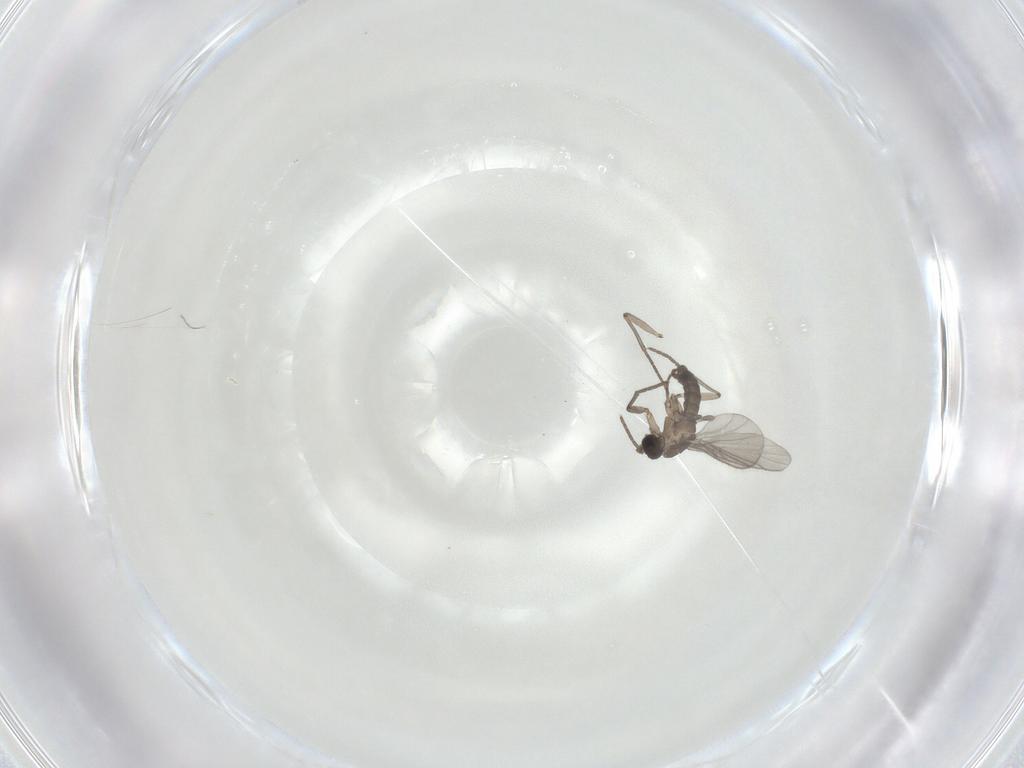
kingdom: Animalia
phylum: Arthropoda
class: Insecta
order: Diptera
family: Sciaridae
